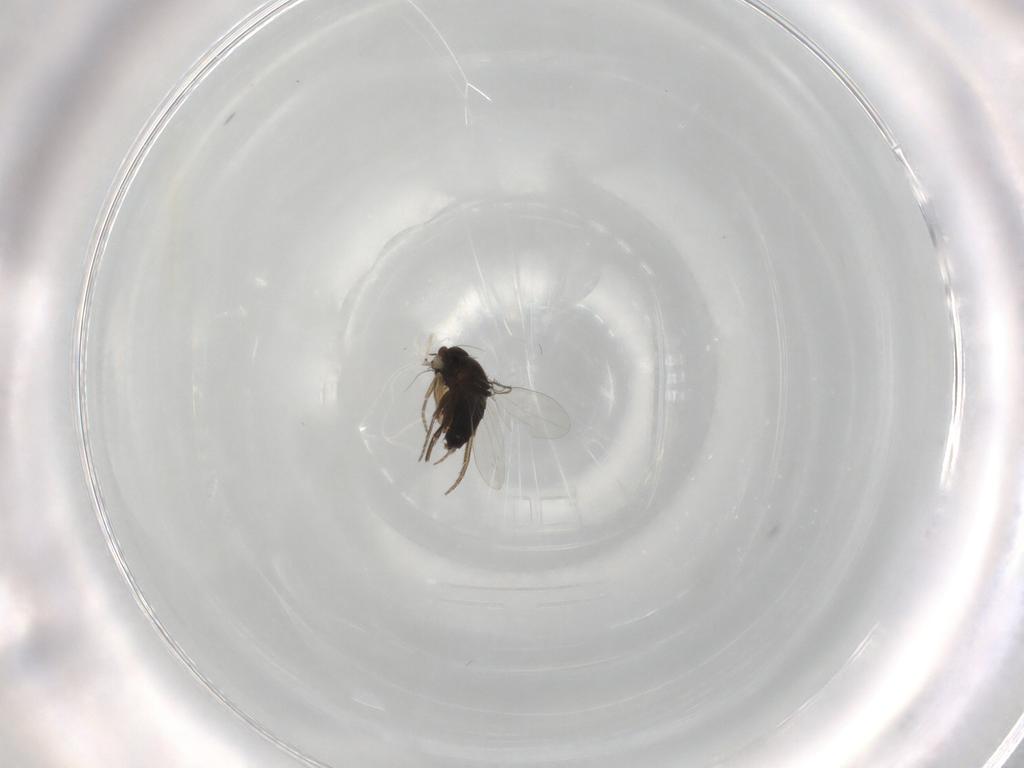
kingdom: Animalia
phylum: Arthropoda
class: Insecta
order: Diptera
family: Phoridae
